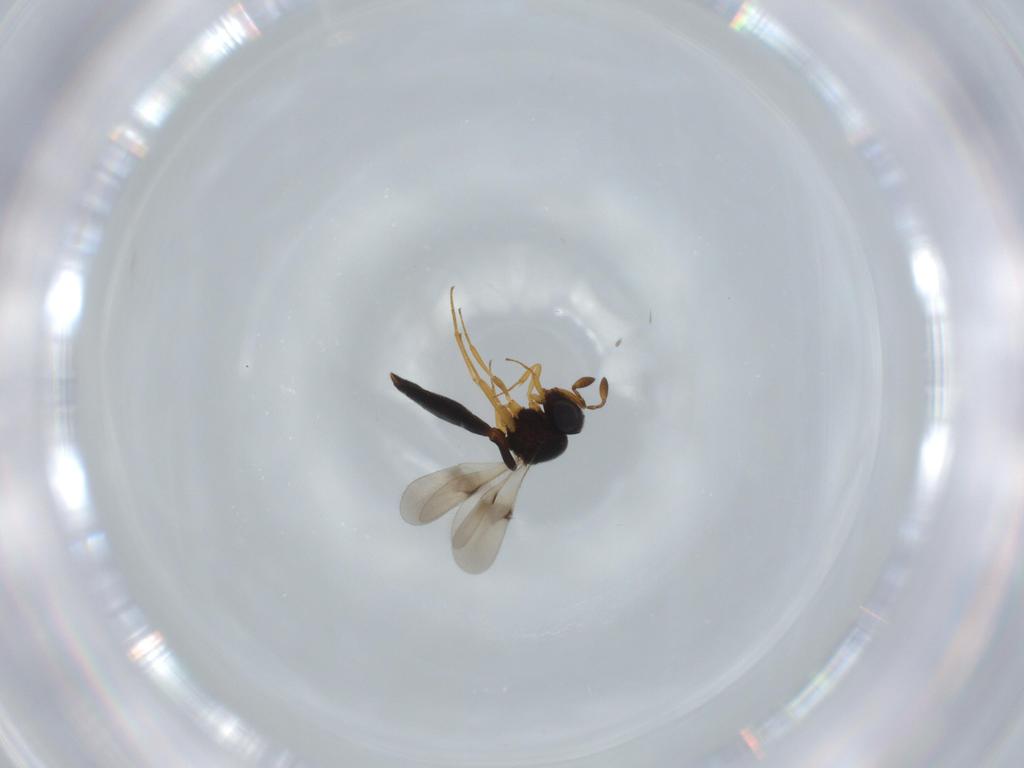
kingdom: Animalia
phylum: Arthropoda
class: Insecta
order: Hymenoptera
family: Scelionidae
